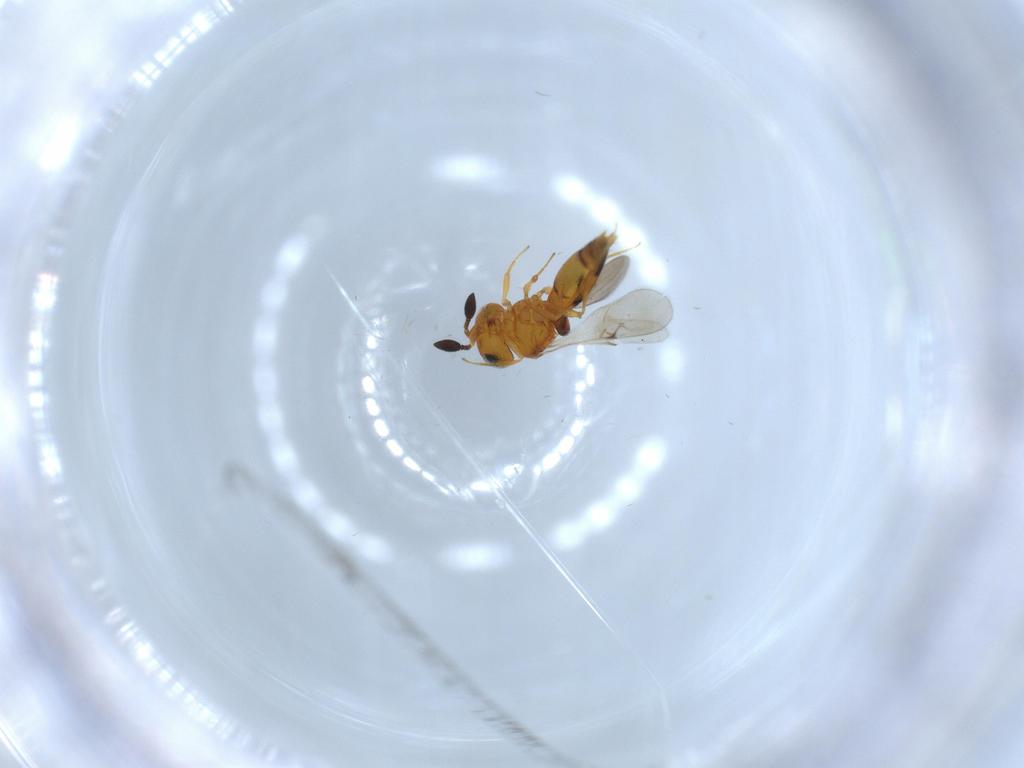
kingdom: Animalia
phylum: Arthropoda
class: Insecta
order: Hymenoptera
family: Scelionidae
